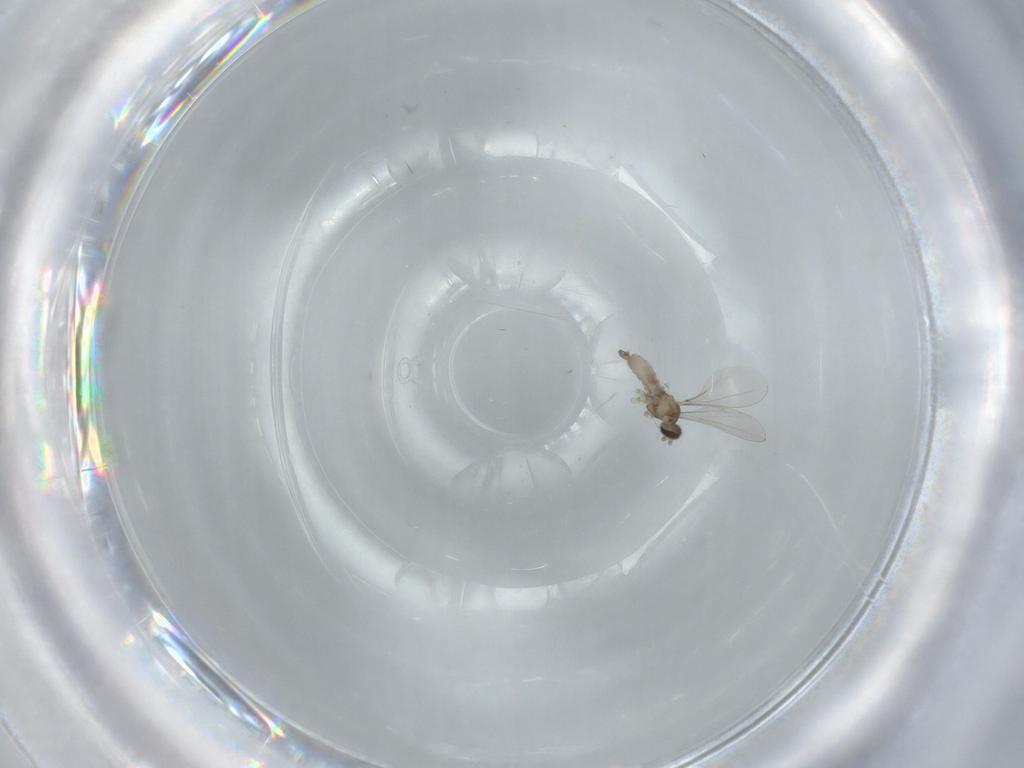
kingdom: Animalia
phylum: Arthropoda
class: Insecta
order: Diptera
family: Cecidomyiidae
